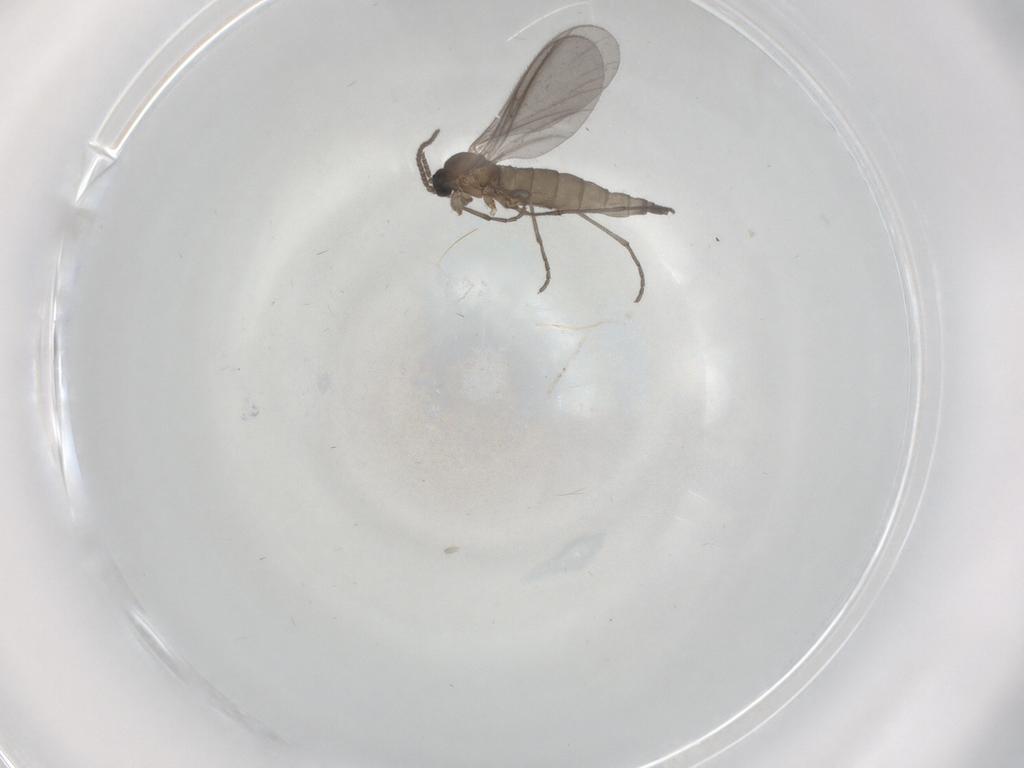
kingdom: Animalia
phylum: Arthropoda
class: Insecta
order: Diptera
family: Sciaridae
